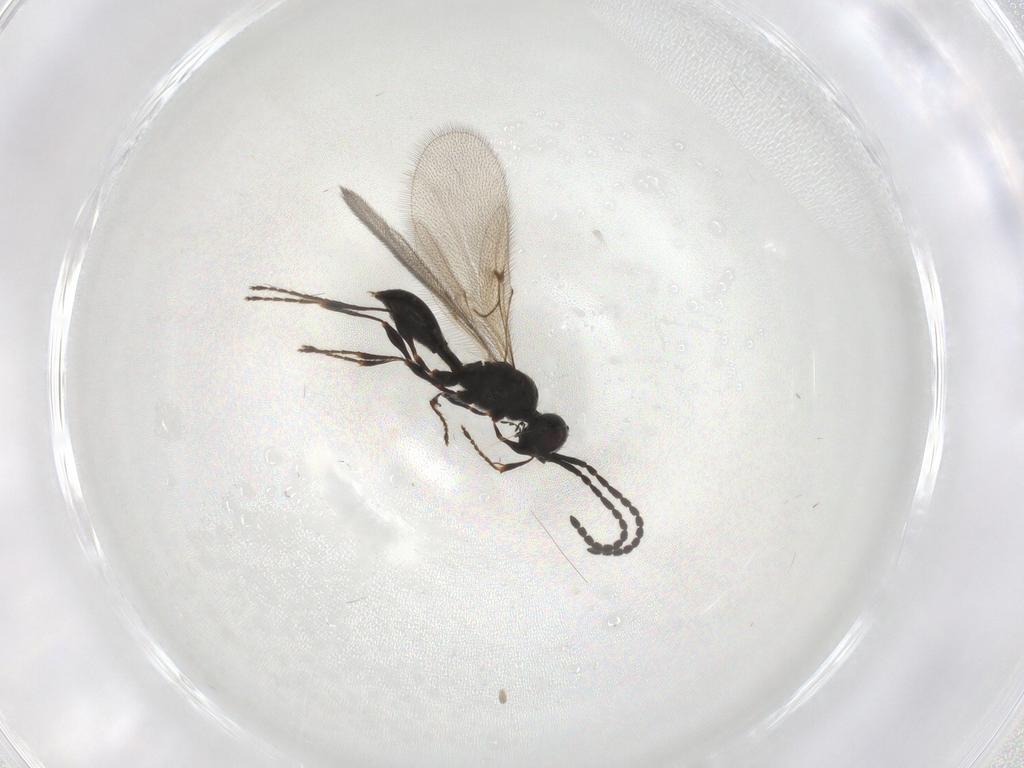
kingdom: Animalia
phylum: Arthropoda
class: Insecta
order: Hymenoptera
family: Diapriidae
